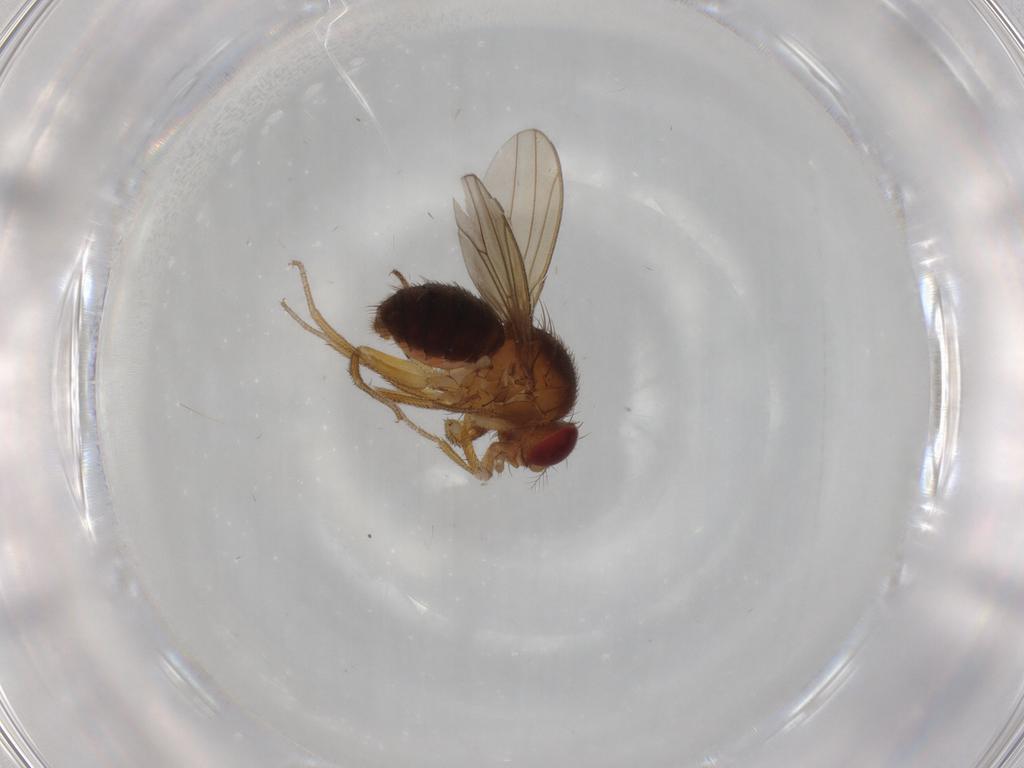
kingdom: Animalia
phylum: Arthropoda
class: Insecta
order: Diptera
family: Drosophilidae
